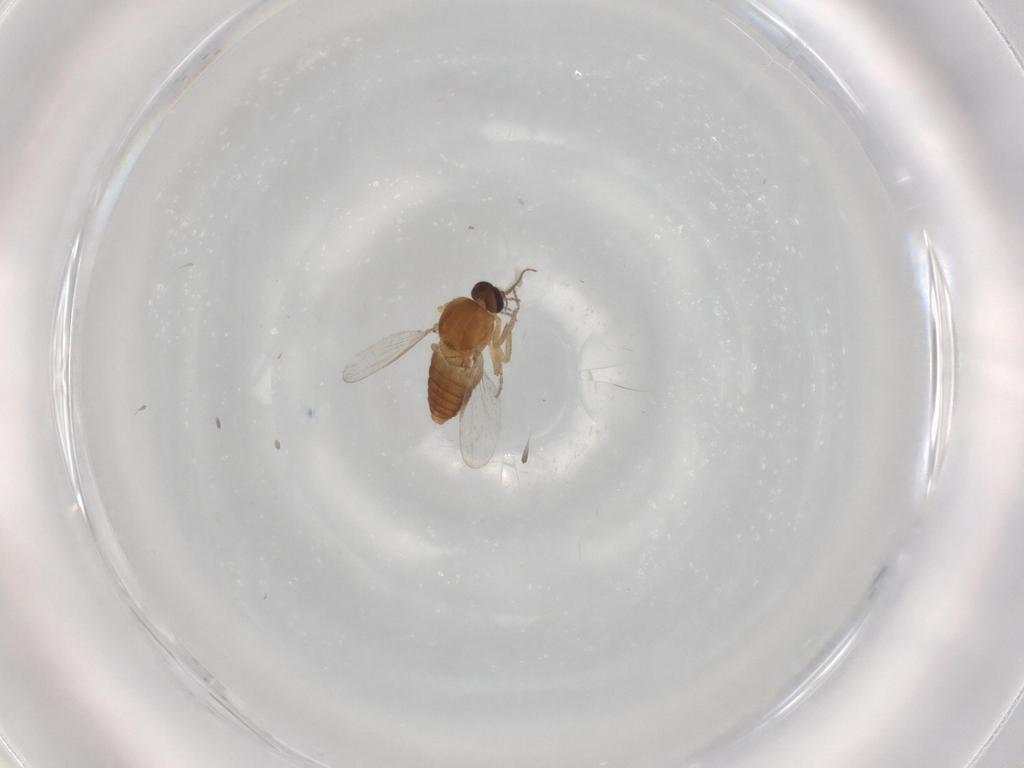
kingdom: Animalia
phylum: Arthropoda
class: Insecta
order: Diptera
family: Ceratopogonidae
